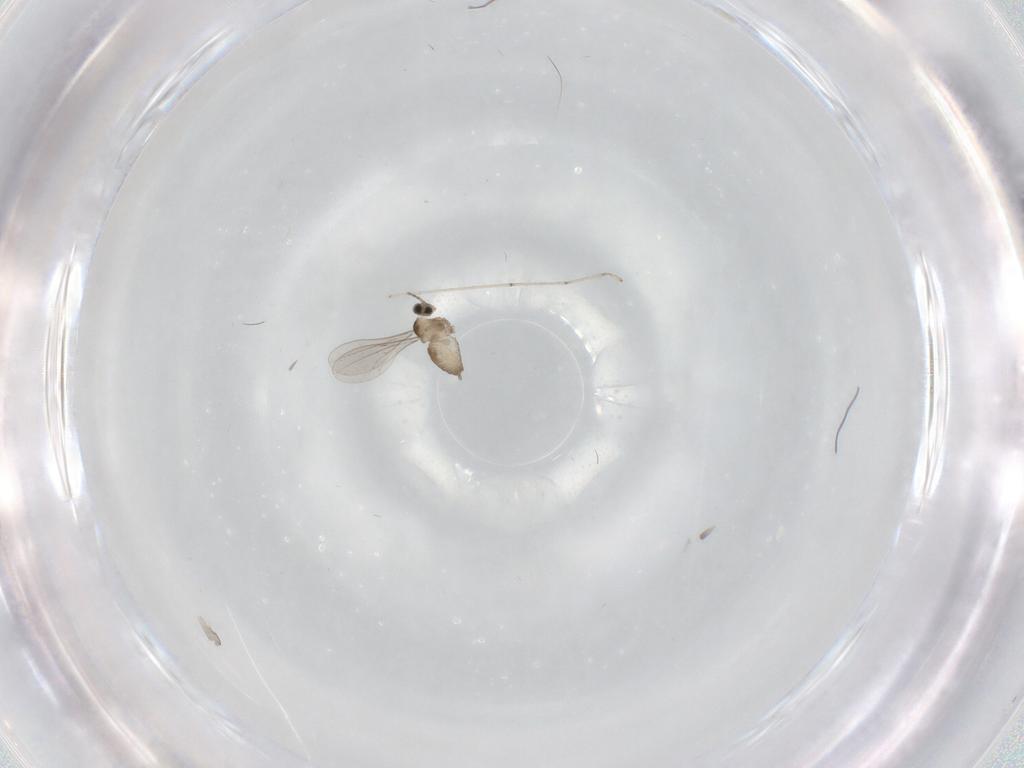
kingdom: Animalia
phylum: Arthropoda
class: Insecta
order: Diptera
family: Cecidomyiidae
